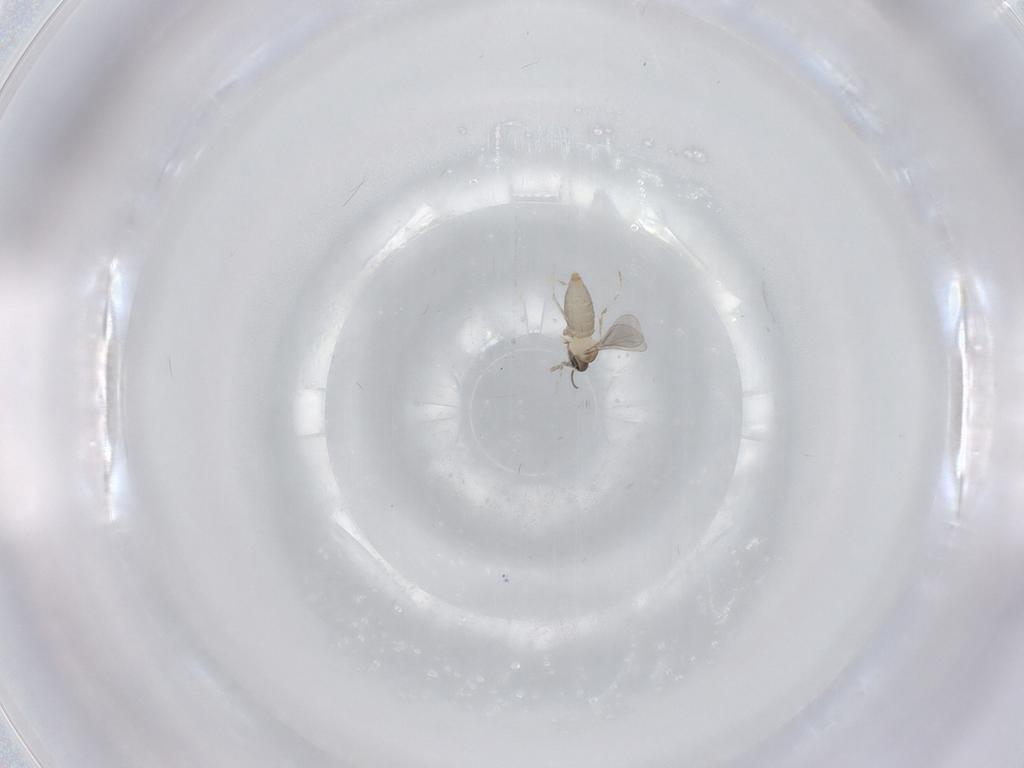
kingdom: Animalia
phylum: Arthropoda
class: Insecta
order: Diptera
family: Cecidomyiidae
